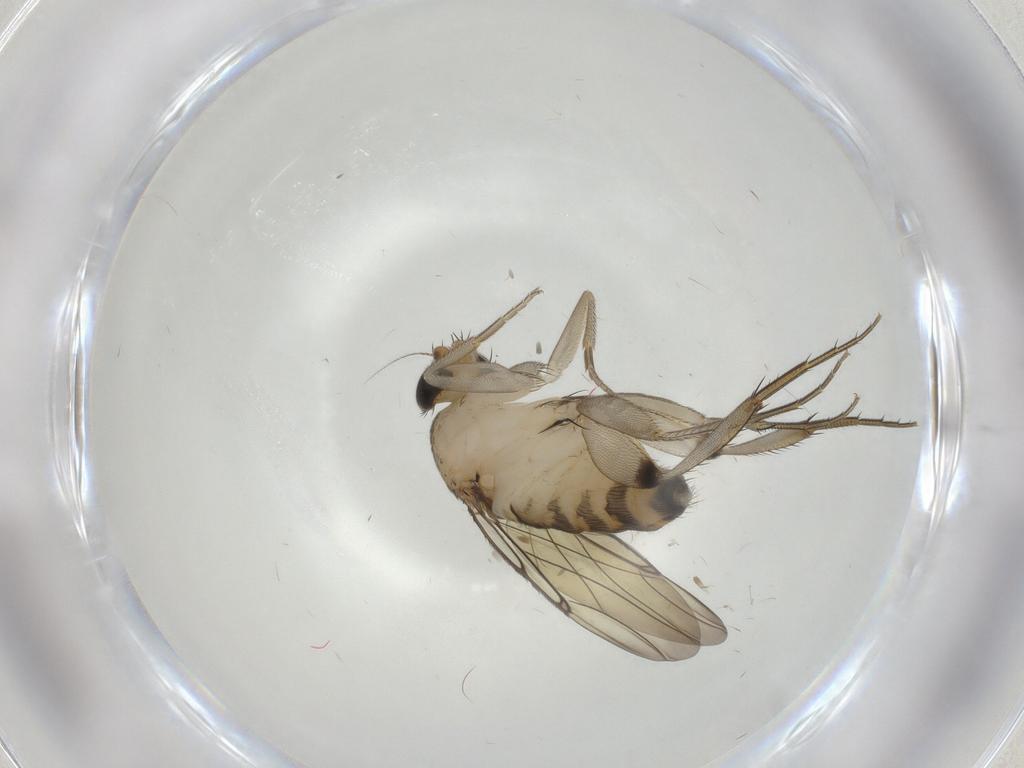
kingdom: Animalia
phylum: Arthropoda
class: Insecta
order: Diptera
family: Phoridae
